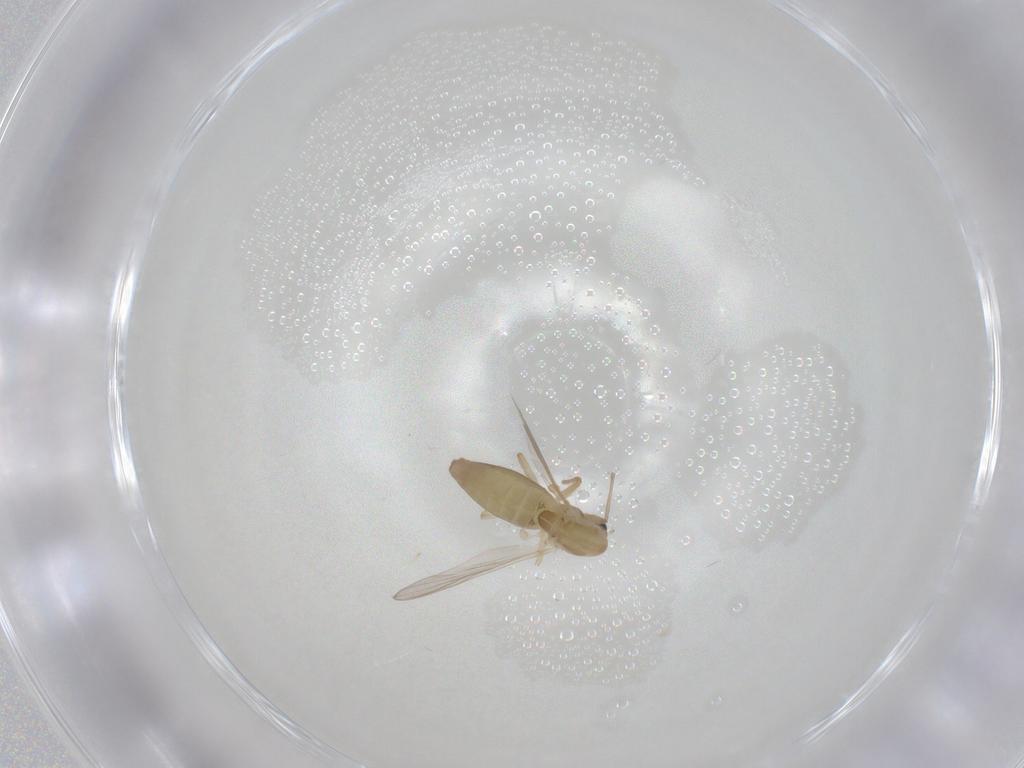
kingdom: Animalia
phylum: Arthropoda
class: Insecta
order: Diptera
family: Chironomidae
